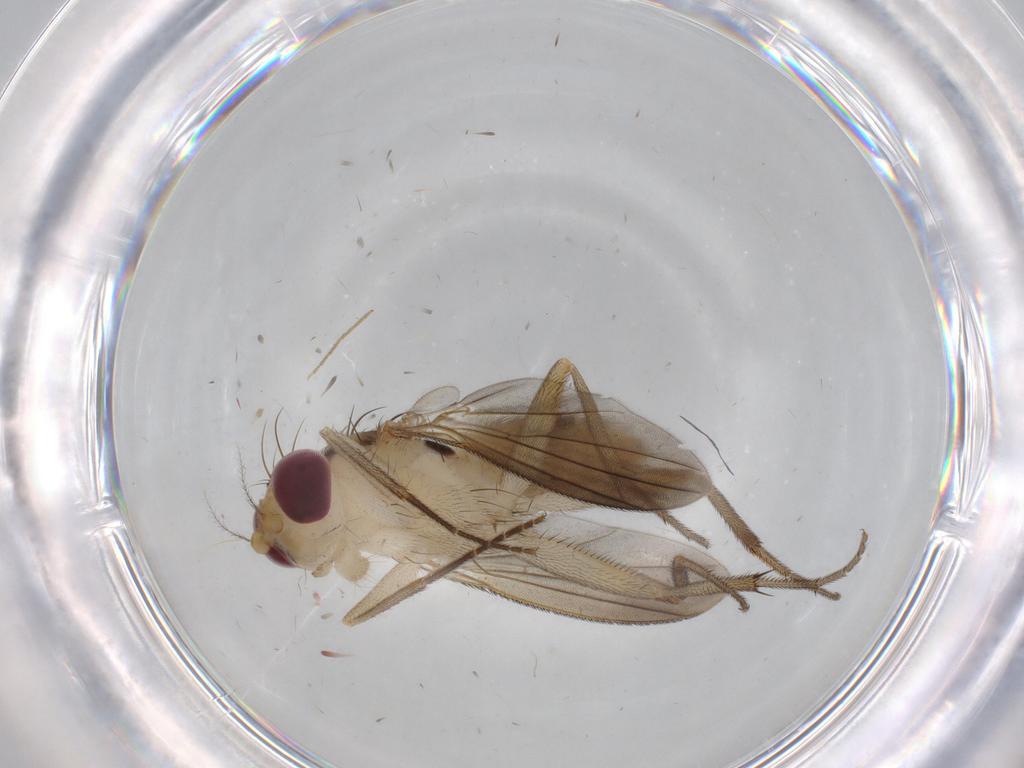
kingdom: Animalia
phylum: Arthropoda
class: Insecta
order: Diptera
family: Clusiidae
